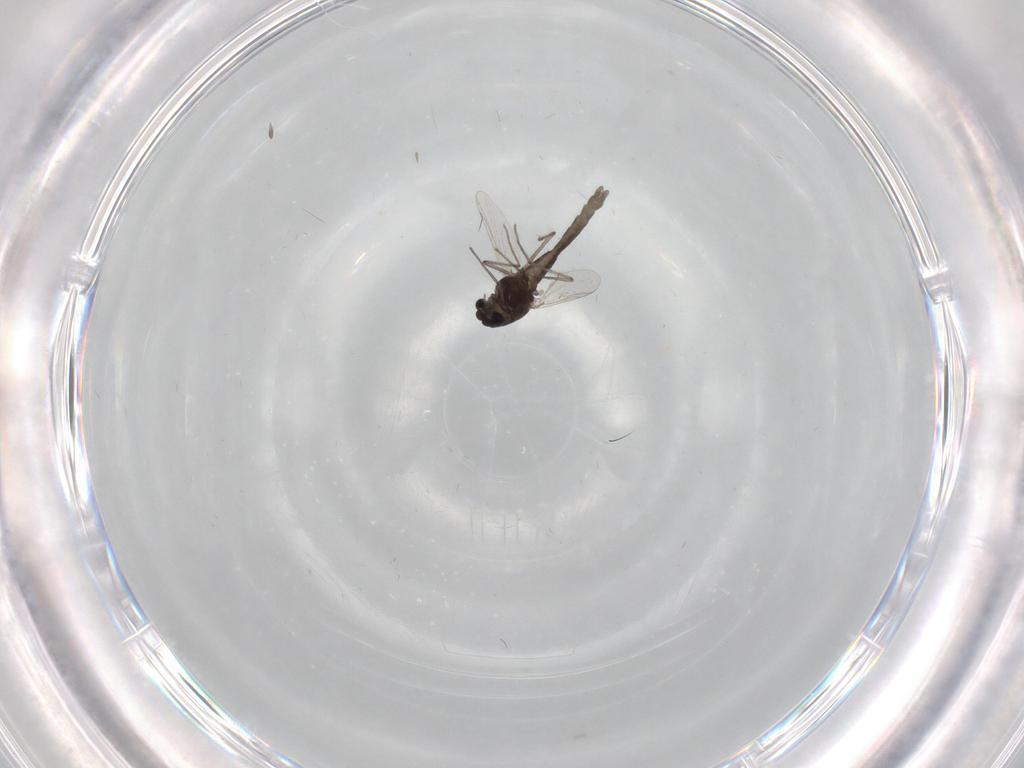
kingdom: Animalia
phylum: Arthropoda
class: Insecta
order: Diptera
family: Chironomidae
